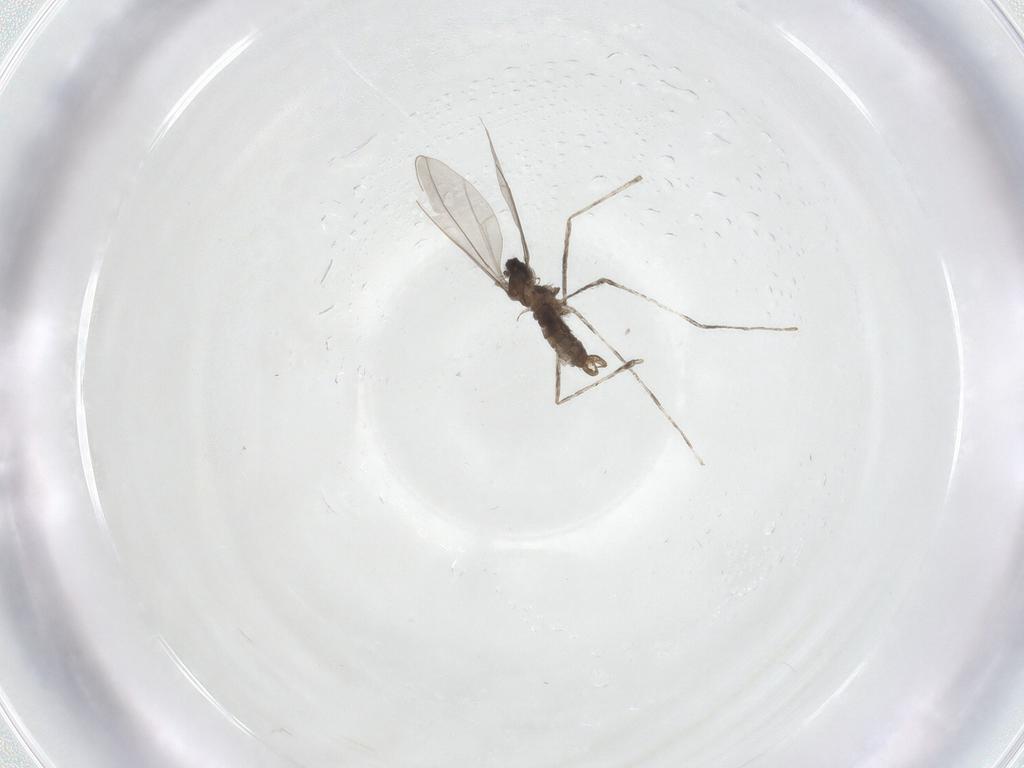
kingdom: Animalia
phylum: Arthropoda
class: Insecta
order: Diptera
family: Cecidomyiidae
